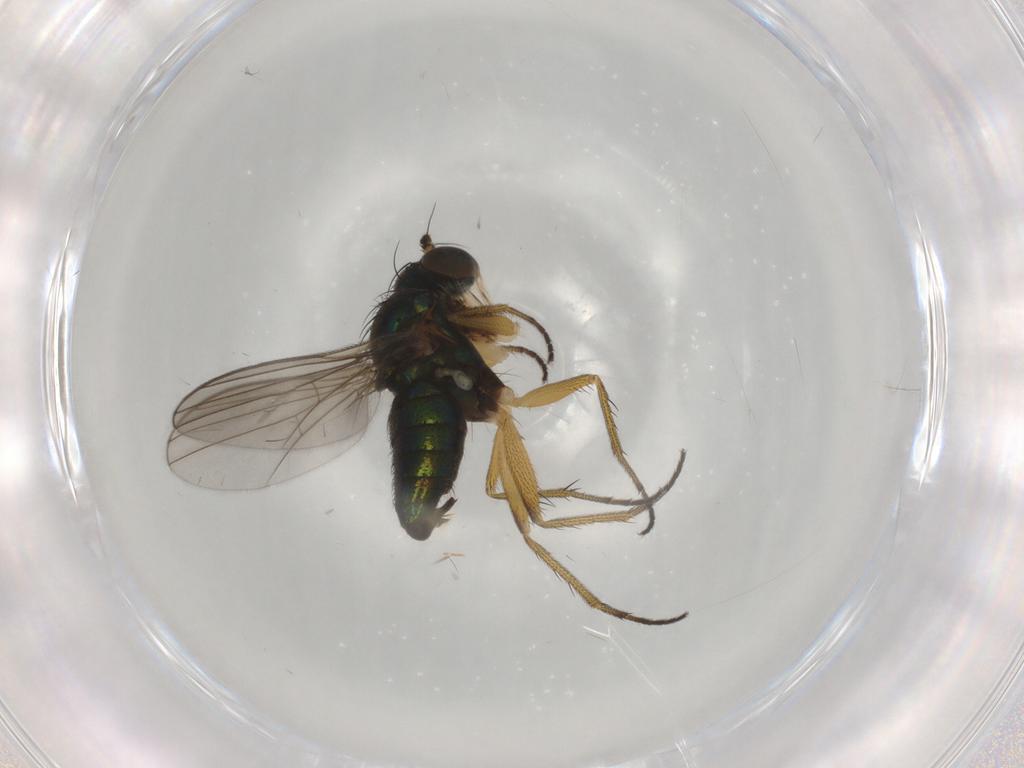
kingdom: Animalia
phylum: Arthropoda
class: Insecta
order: Diptera
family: Dolichopodidae
